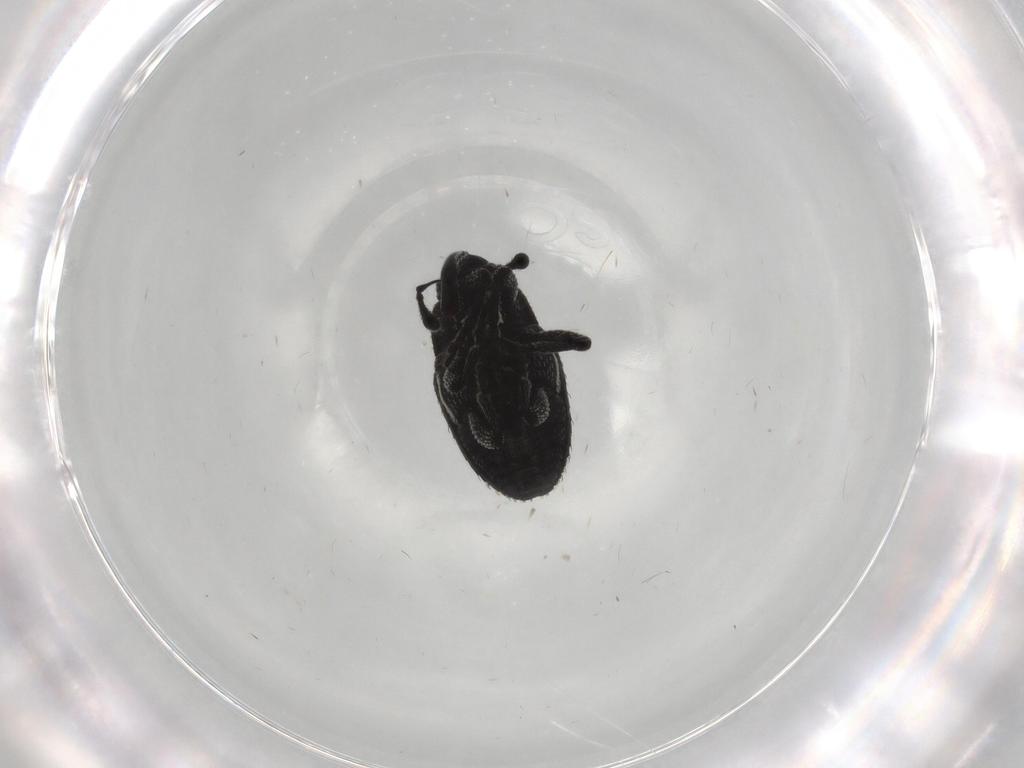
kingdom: Animalia
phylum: Arthropoda
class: Insecta
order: Coleoptera
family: Curculionidae
